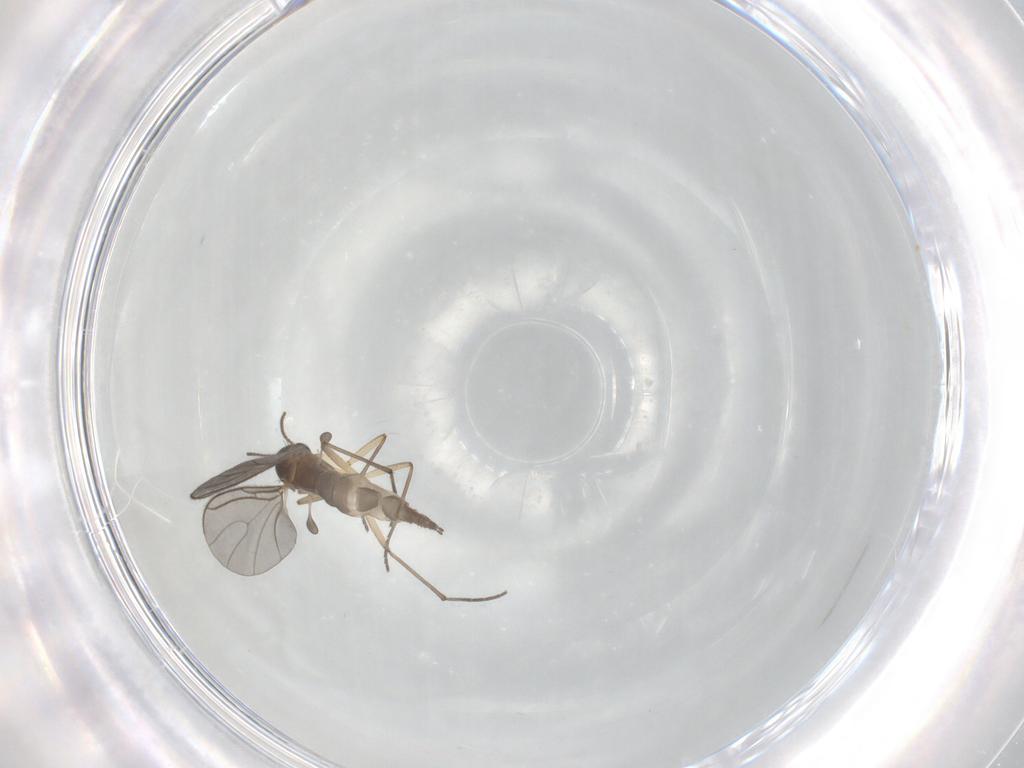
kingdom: Animalia
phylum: Arthropoda
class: Insecta
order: Diptera
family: Sciaridae
